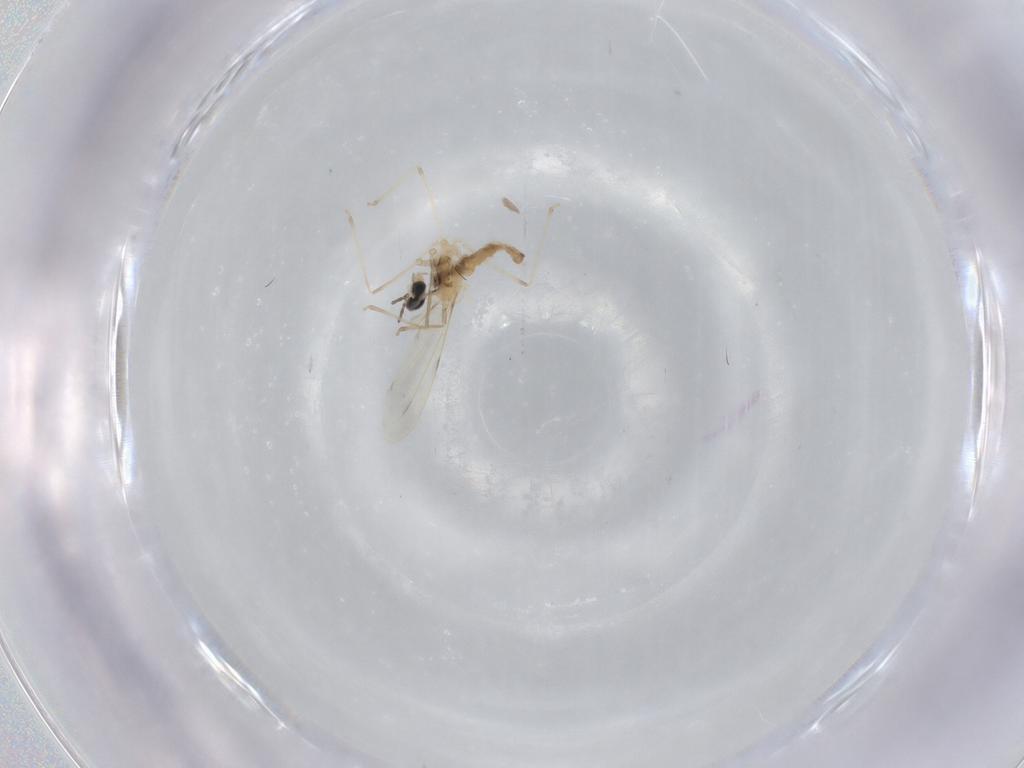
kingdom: Animalia
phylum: Arthropoda
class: Insecta
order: Diptera
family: Cecidomyiidae
